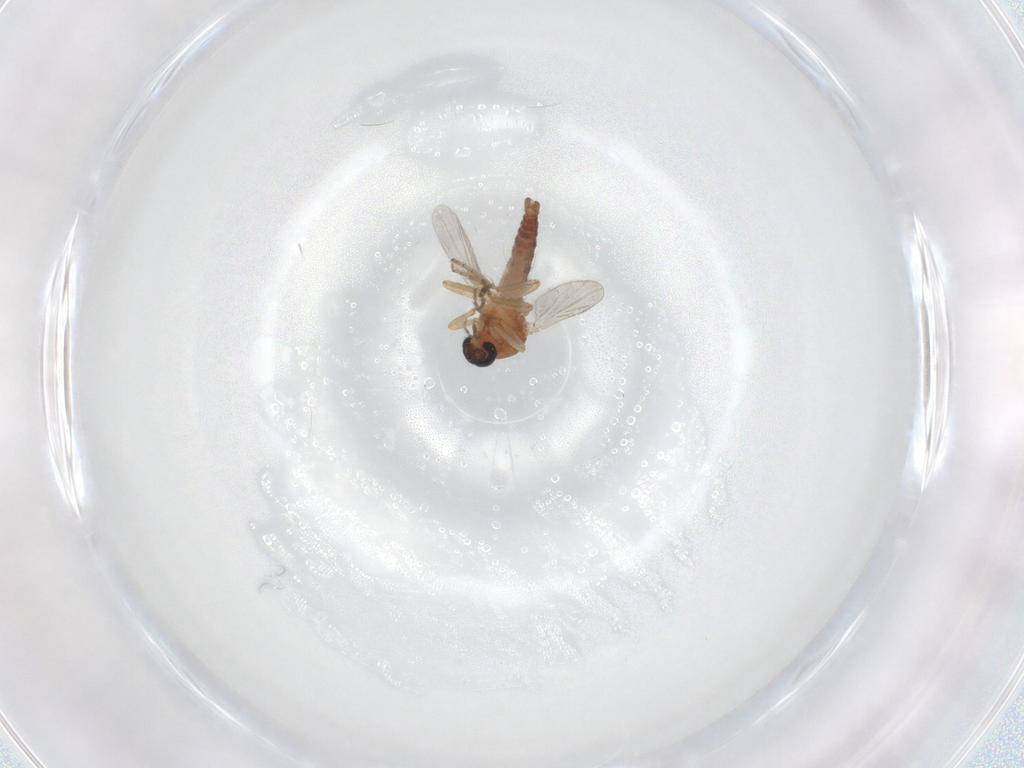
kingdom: Animalia
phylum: Arthropoda
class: Insecta
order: Diptera
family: Ceratopogonidae
